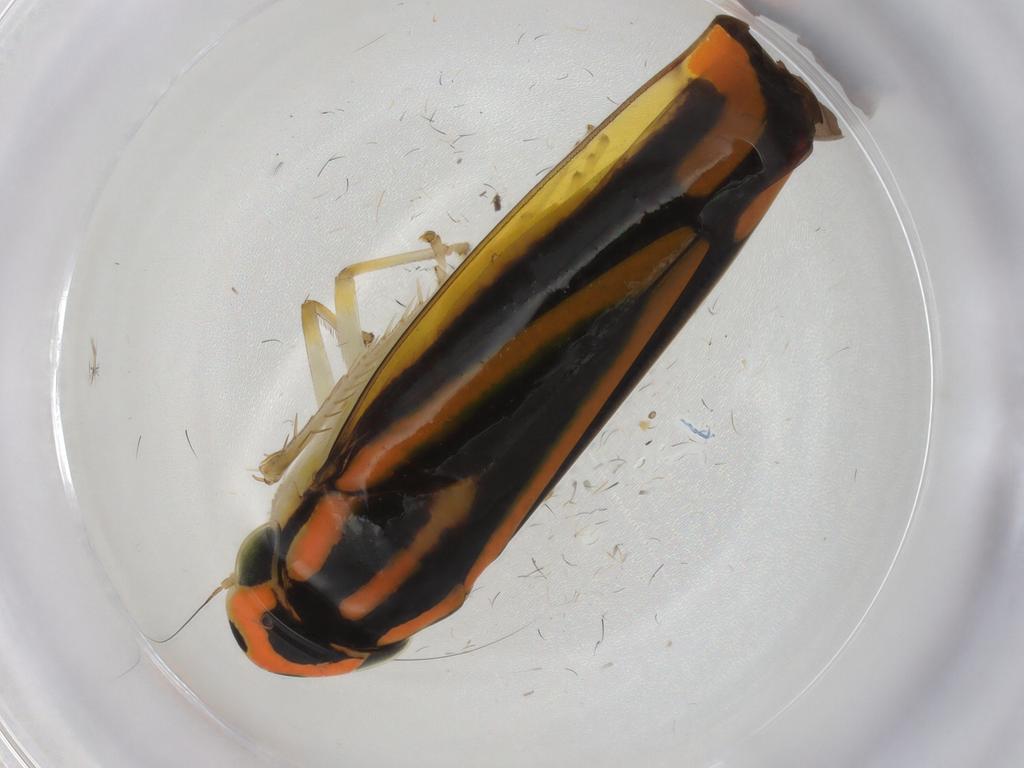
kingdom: Animalia
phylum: Arthropoda
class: Insecta
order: Hemiptera
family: Cicadellidae
